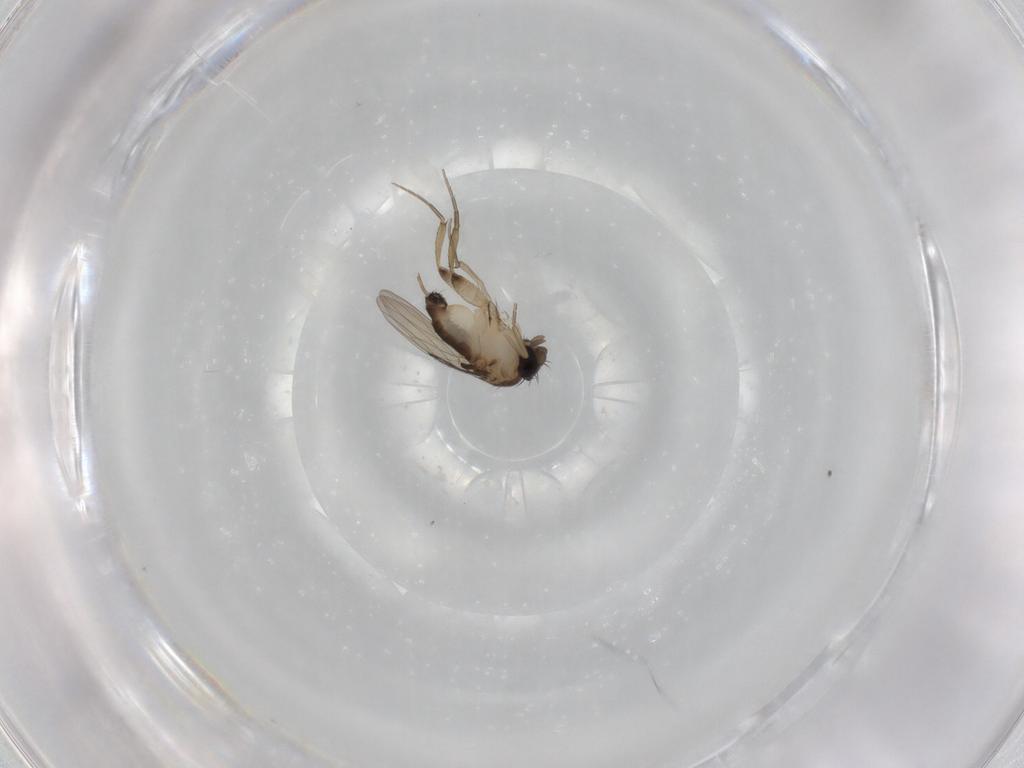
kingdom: Animalia
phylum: Arthropoda
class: Insecta
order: Diptera
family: Phoridae
